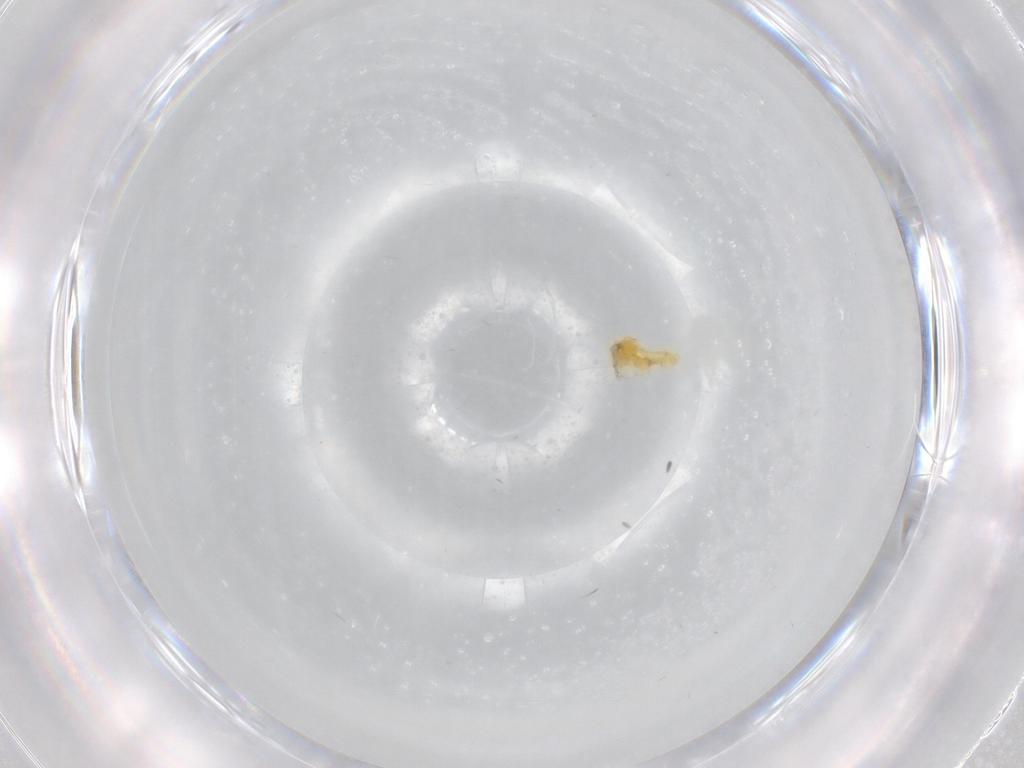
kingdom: Animalia
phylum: Arthropoda
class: Insecta
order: Hemiptera
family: Aleyrodidae
